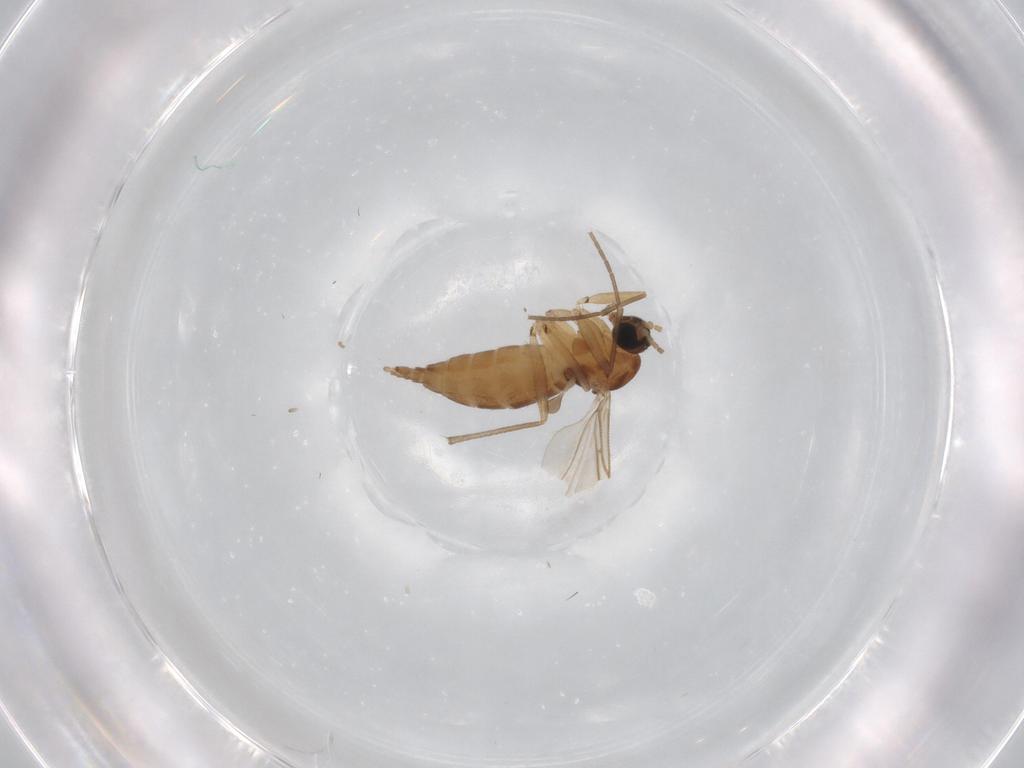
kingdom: Animalia
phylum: Arthropoda
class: Insecta
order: Diptera
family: Ceratopogonidae
